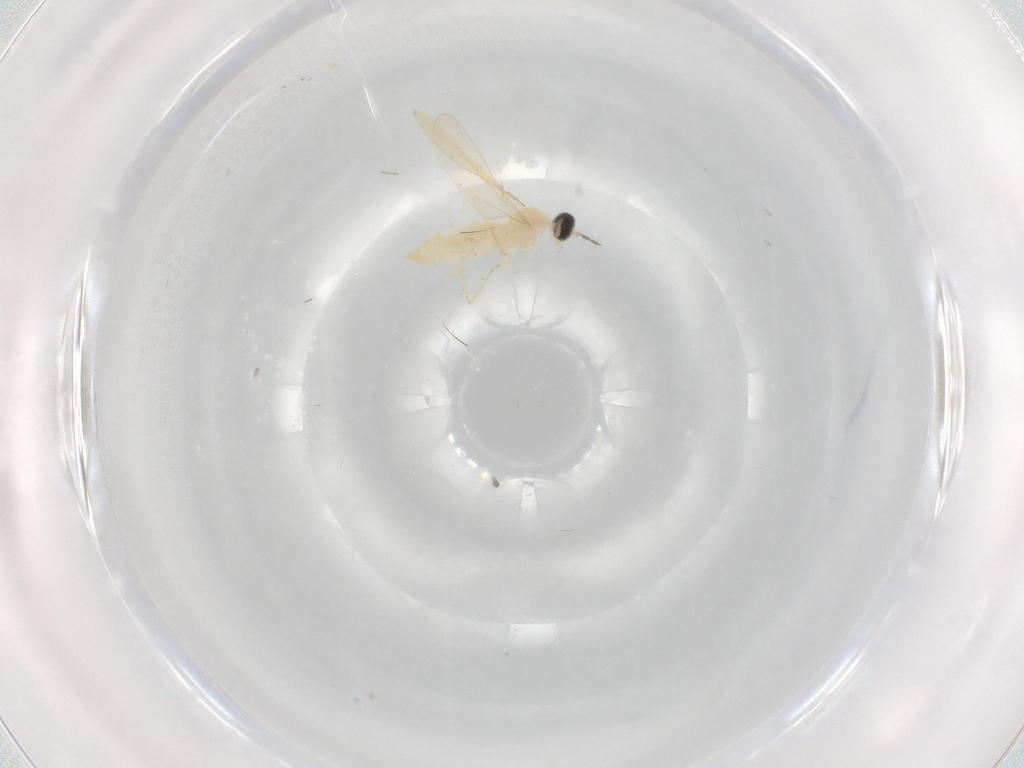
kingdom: Animalia
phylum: Arthropoda
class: Insecta
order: Diptera
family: Cecidomyiidae
